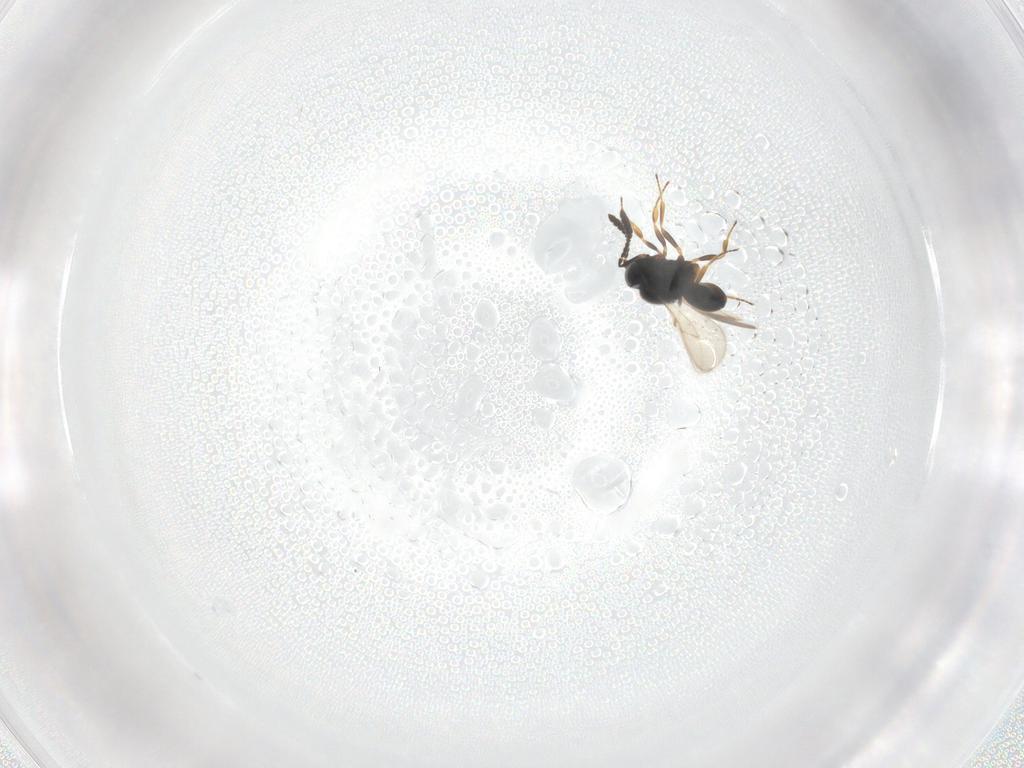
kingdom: Animalia
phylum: Arthropoda
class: Insecta
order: Hymenoptera
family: Scelionidae
